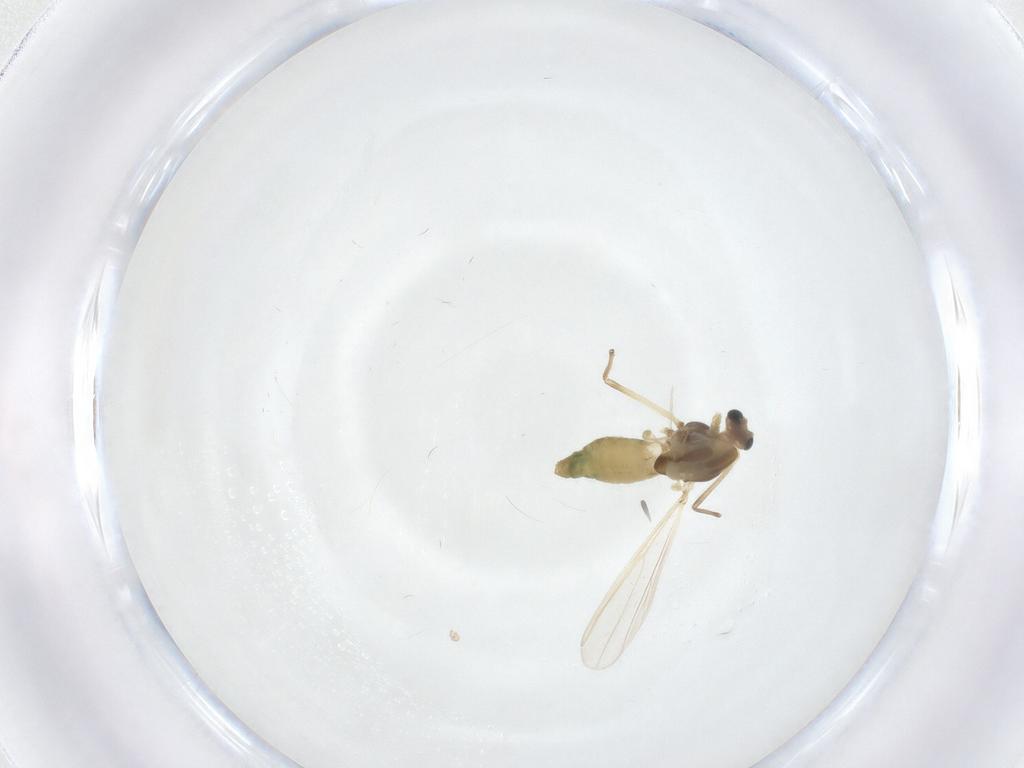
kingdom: Animalia
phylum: Arthropoda
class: Insecta
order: Diptera
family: Chironomidae
